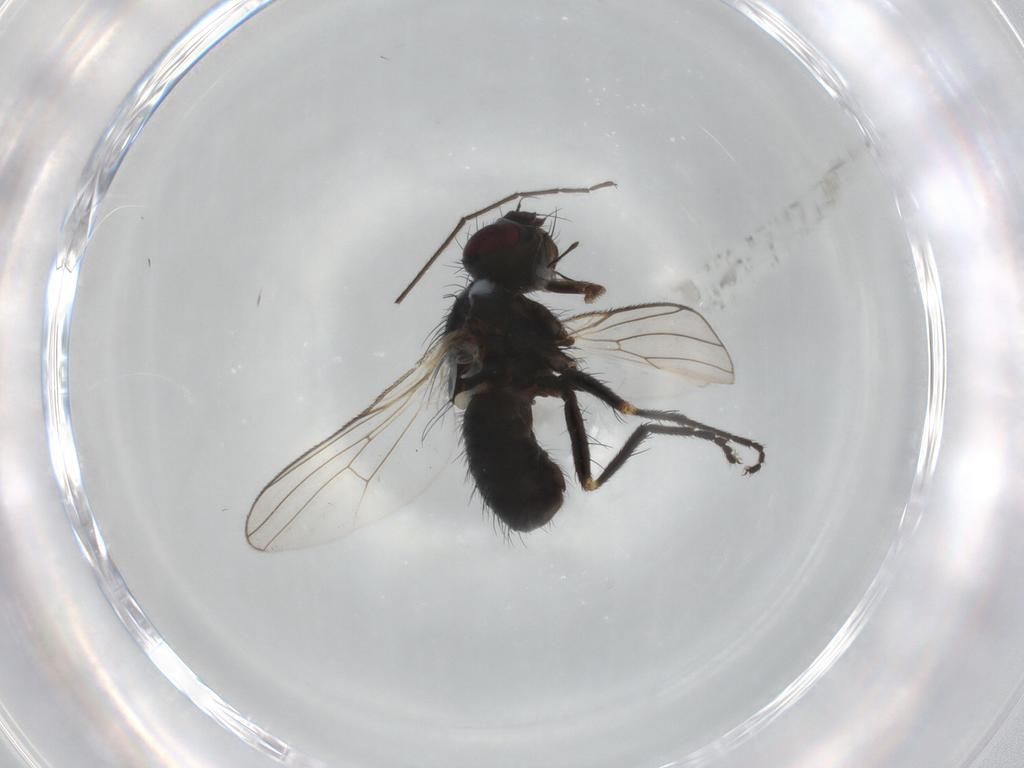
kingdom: Animalia
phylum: Arthropoda
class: Insecta
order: Diptera
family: Muscidae
